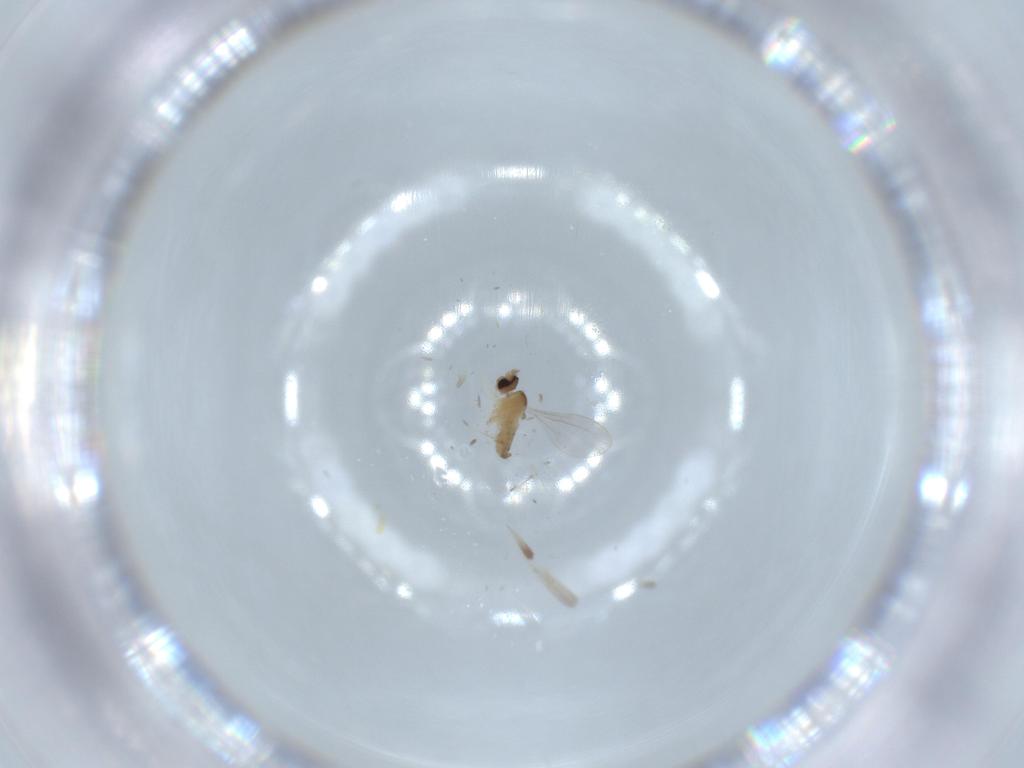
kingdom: Animalia
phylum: Arthropoda
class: Insecta
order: Diptera
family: Cecidomyiidae
